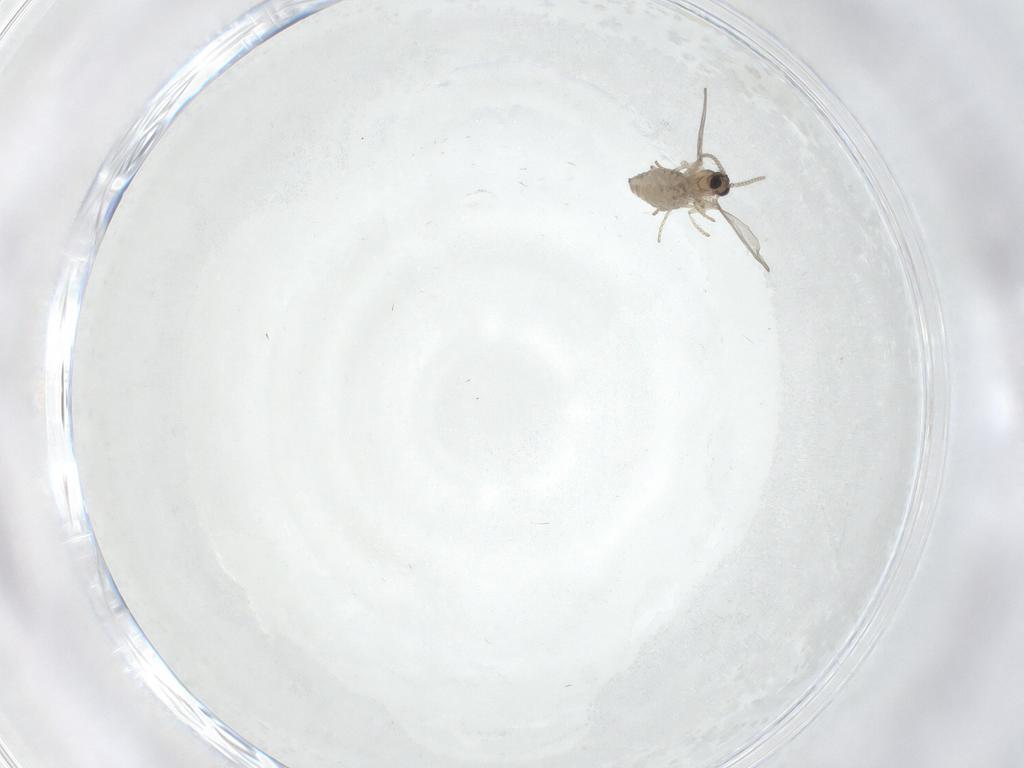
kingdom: Animalia
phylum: Arthropoda
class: Insecta
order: Diptera
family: Cecidomyiidae
